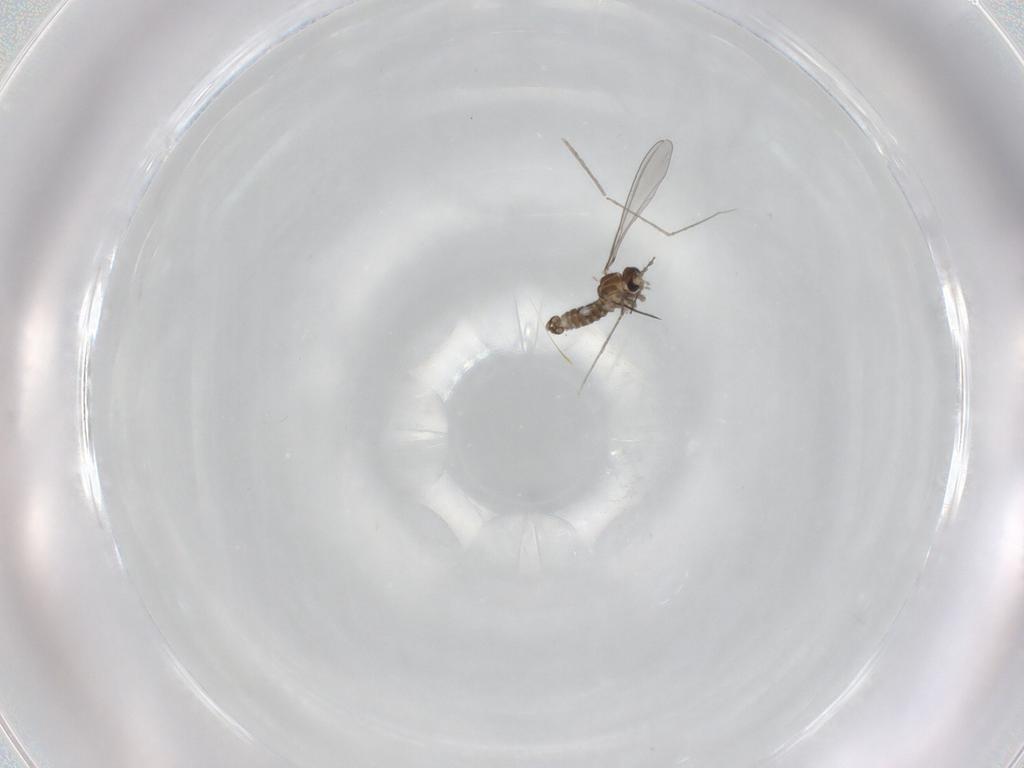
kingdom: Animalia
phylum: Arthropoda
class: Insecta
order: Diptera
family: Cecidomyiidae
